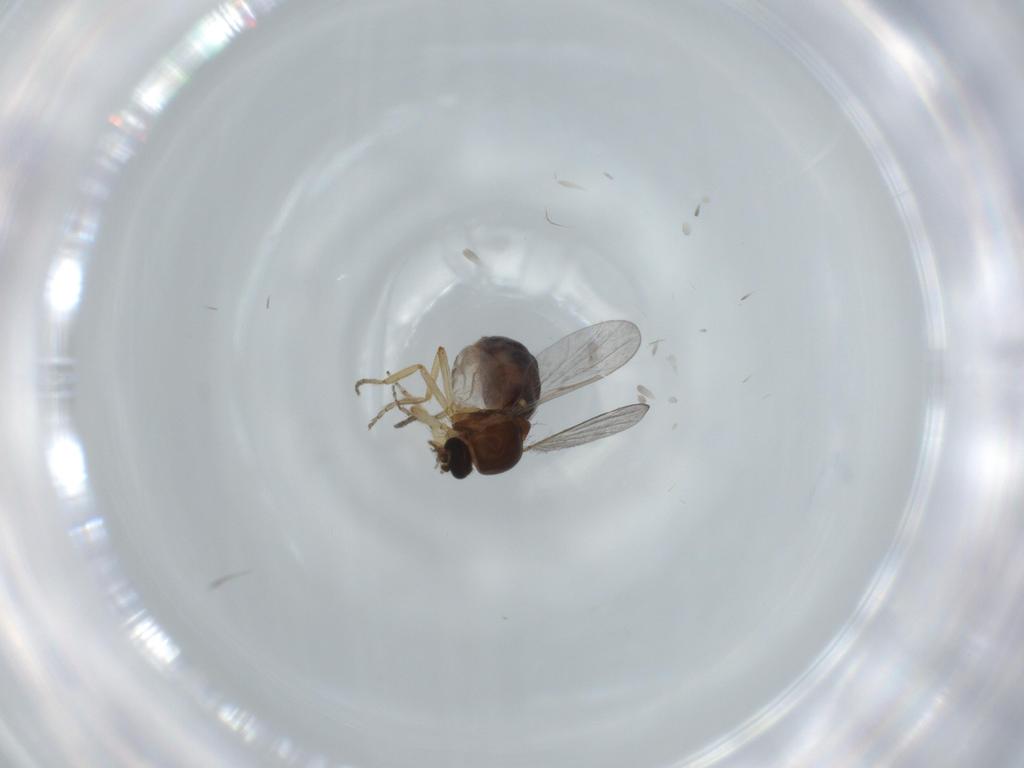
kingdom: Animalia
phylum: Arthropoda
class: Insecta
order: Diptera
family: Ceratopogonidae
